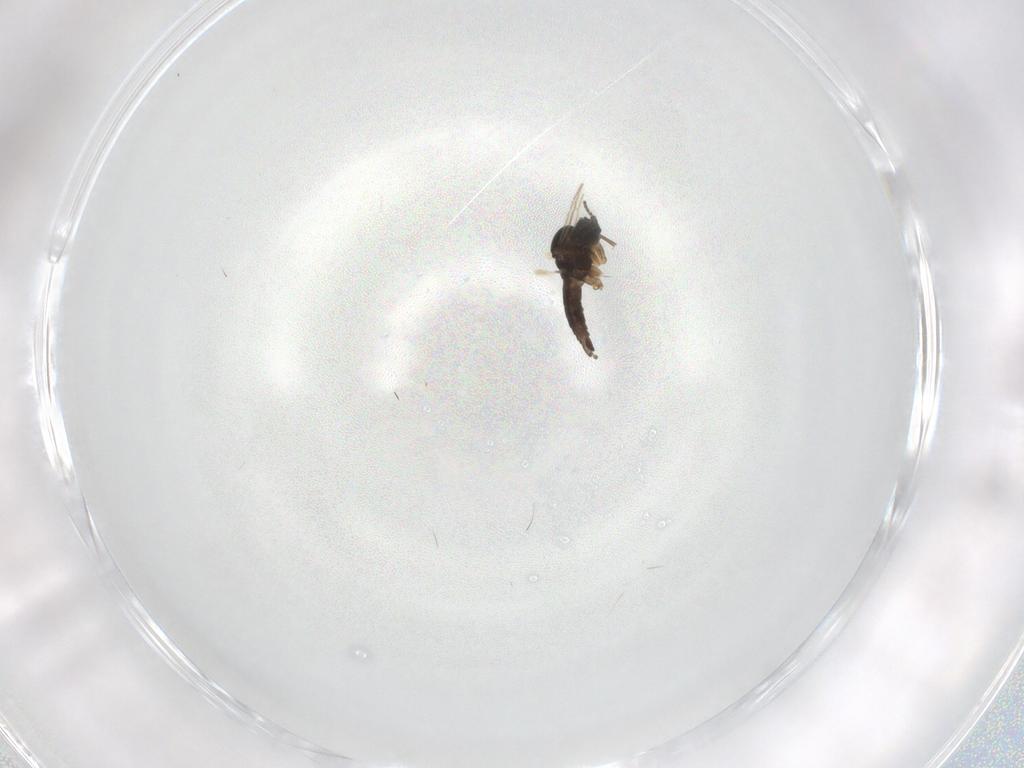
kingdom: Animalia
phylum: Arthropoda
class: Insecta
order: Diptera
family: Sciaridae
